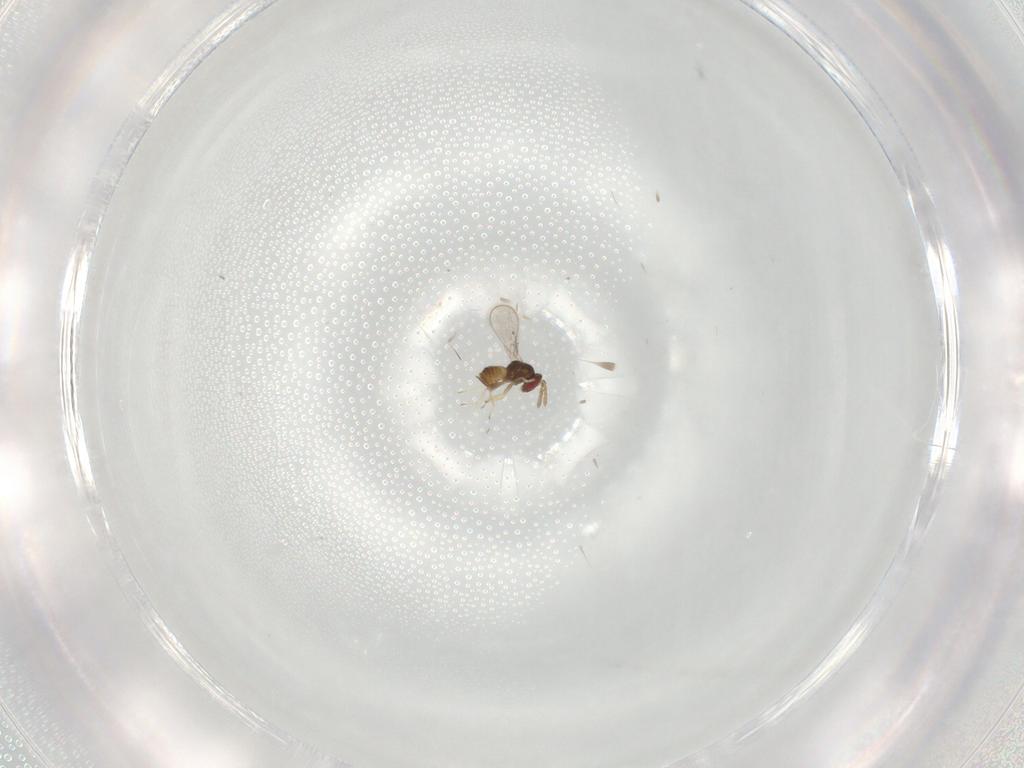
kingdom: Animalia
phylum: Arthropoda
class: Insecta
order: Hymenoptera
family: Eulophidae
